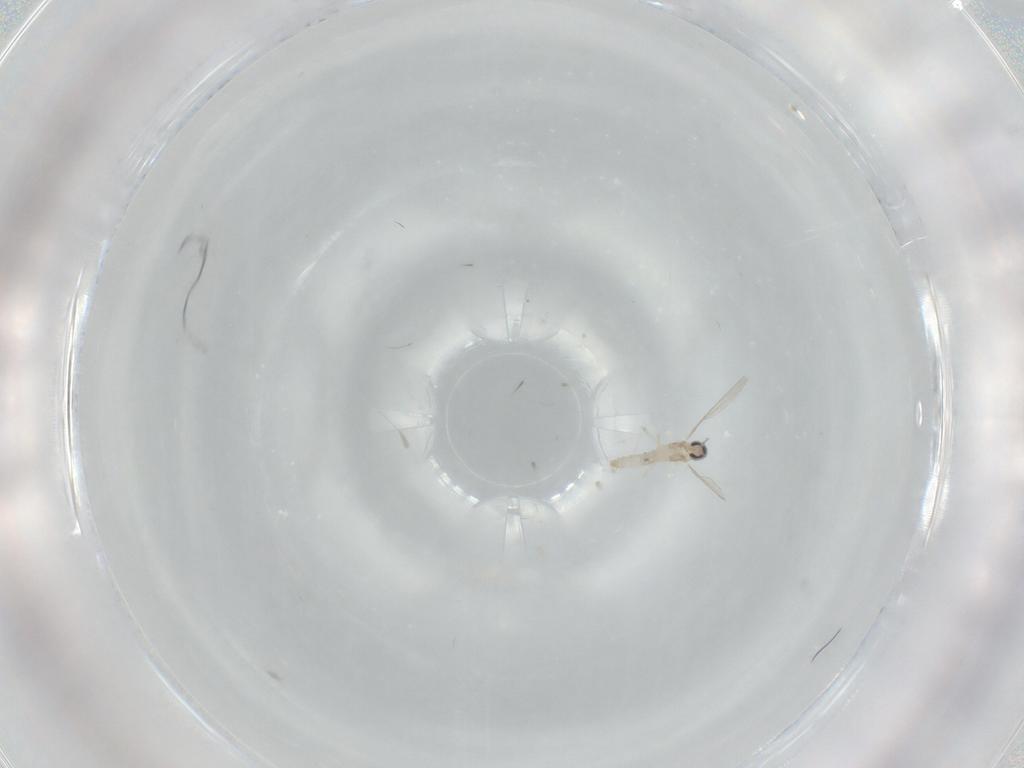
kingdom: Animalia
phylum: Arthropoda
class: Insecta
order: Diptera
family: Cecidomyiidae
